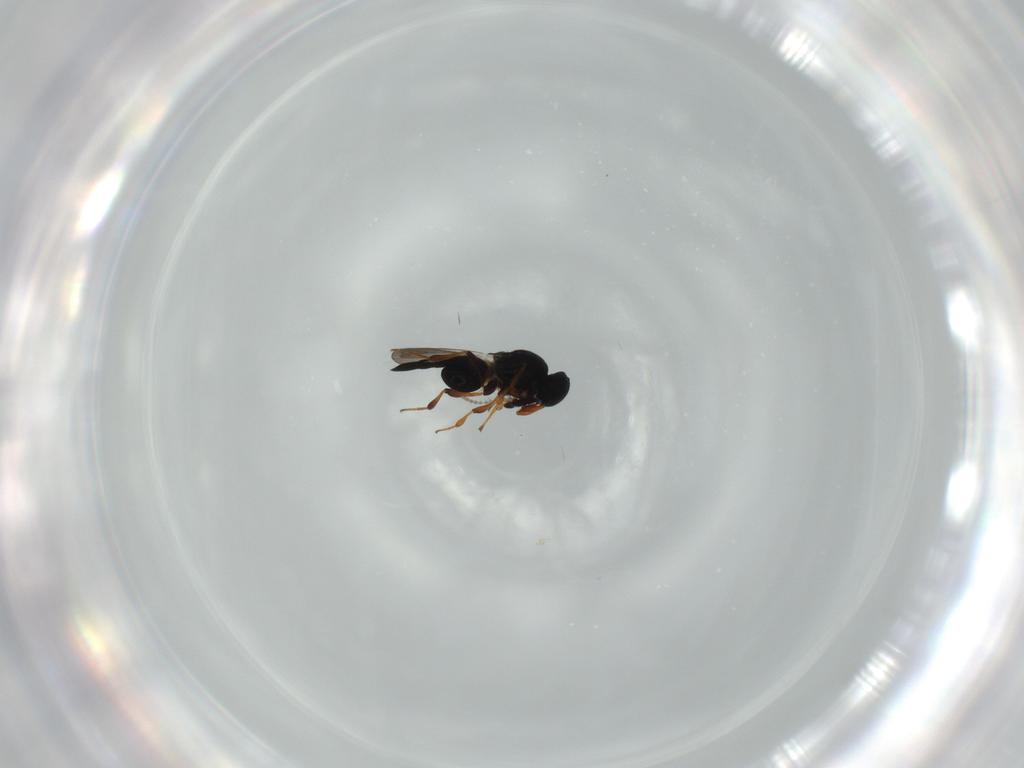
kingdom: Animalia
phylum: Arthropoda
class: Insecta
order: Hymenoptera
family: Platygastridae
